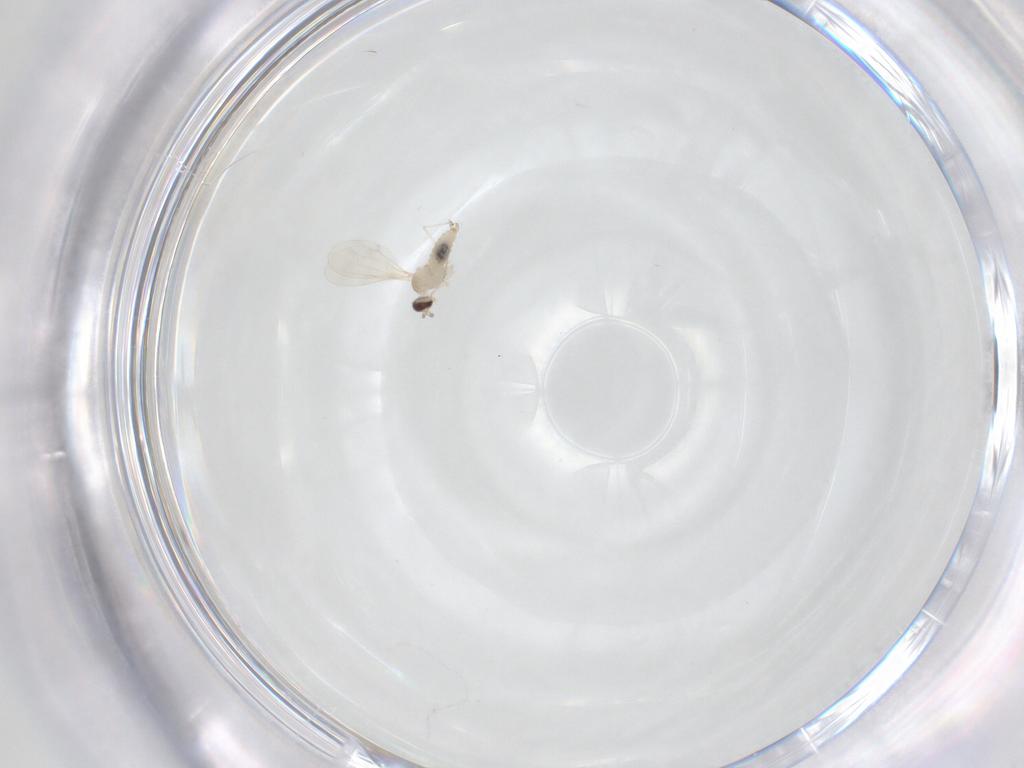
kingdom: Animalia
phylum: Arthropoda
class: Insecta
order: Diptera
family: Cecidomyiidae
